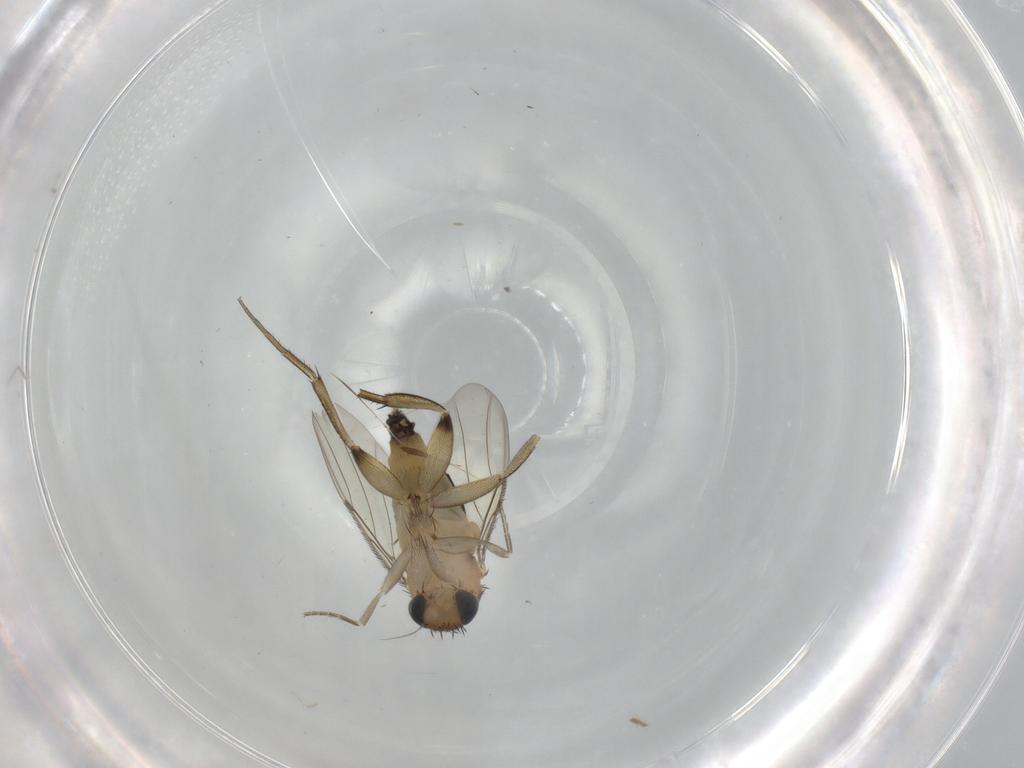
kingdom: Animalia
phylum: Arthropoda
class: Insecta
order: Diptera
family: Phoridae
